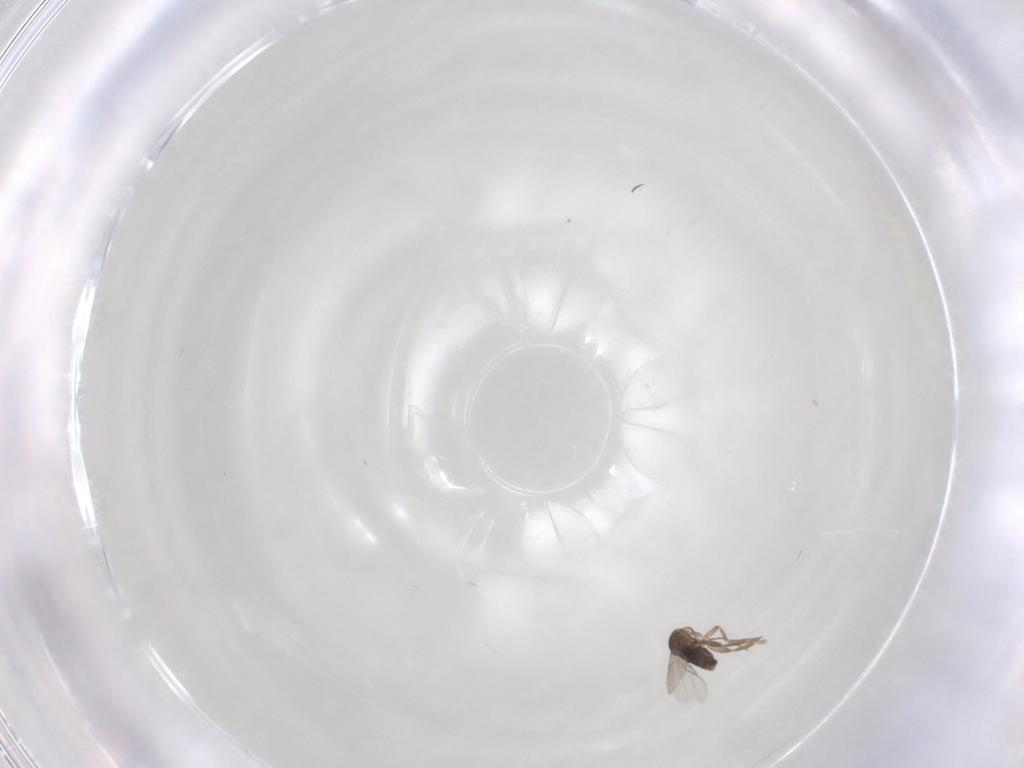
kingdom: Animalia
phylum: Arthropoda
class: Insecta
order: Diptera
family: Phoridae
